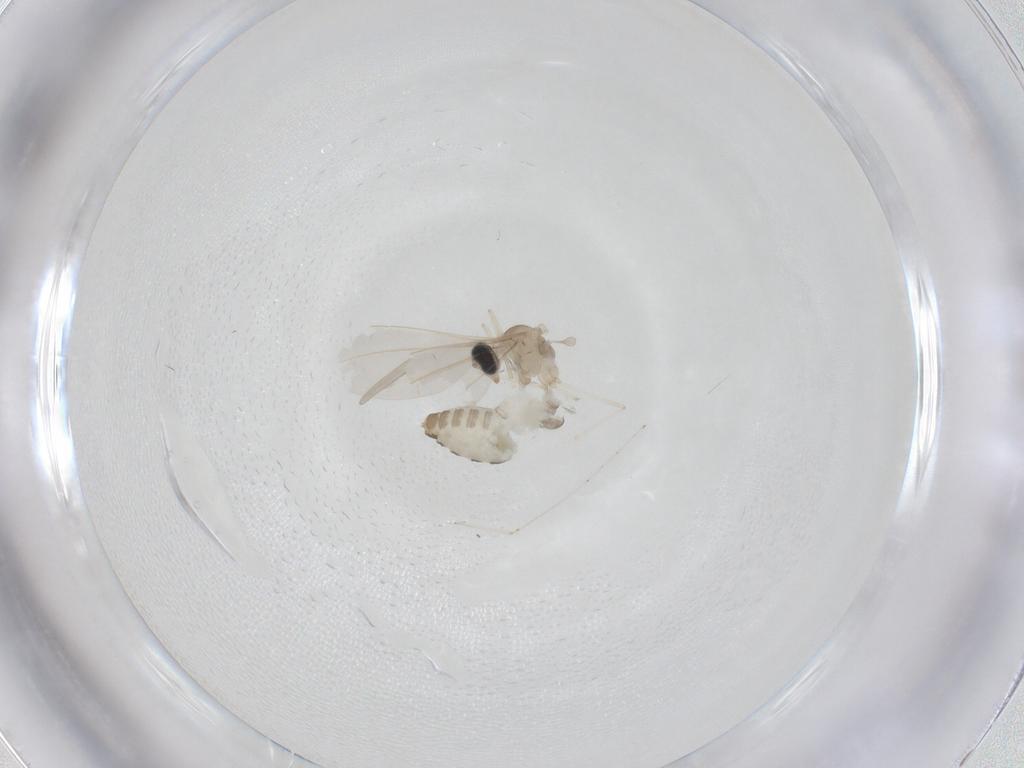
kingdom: Animalia
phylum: Arthropoda
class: Insecta
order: Diptera
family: Cecidomyiidae
